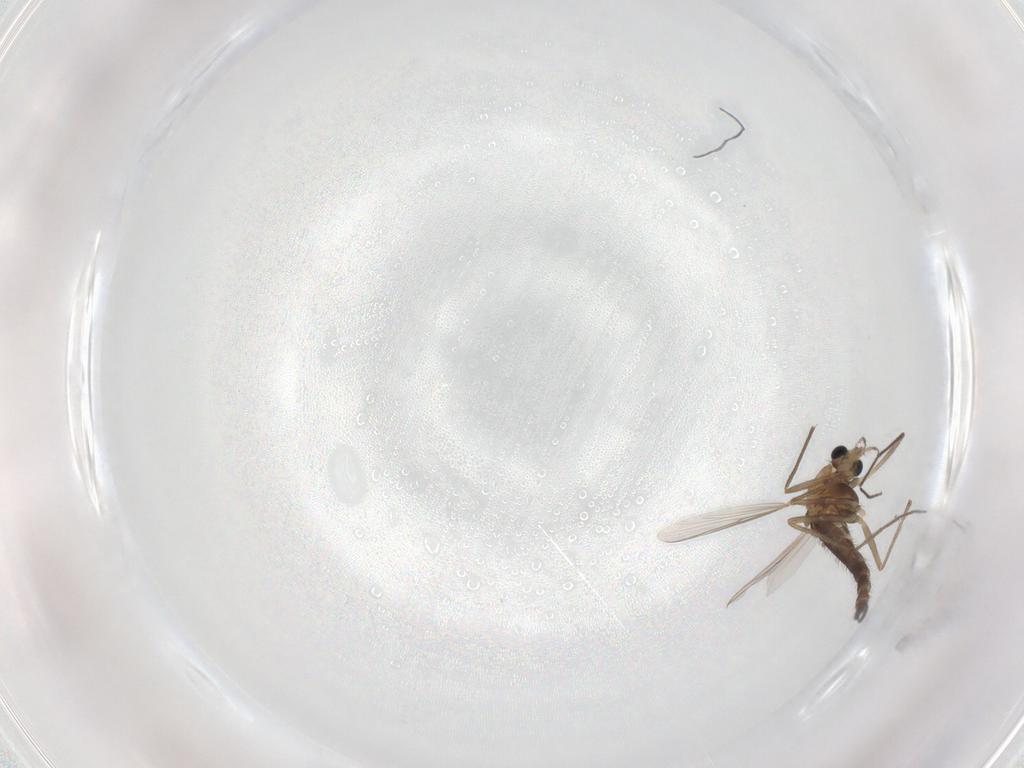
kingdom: Animalia
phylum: Arthropoda
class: Insecta
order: Diptera
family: Chironomidae
